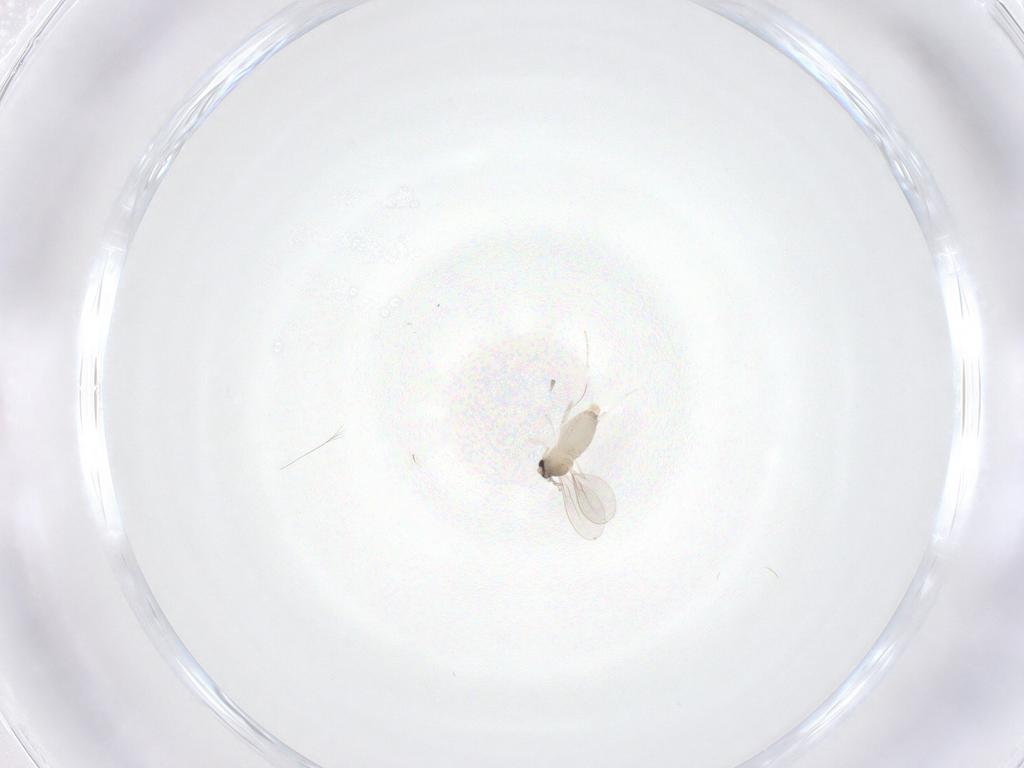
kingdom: Animalia
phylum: Arthropoda
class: Insecta
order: Diptera
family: Cecidomyiidae
